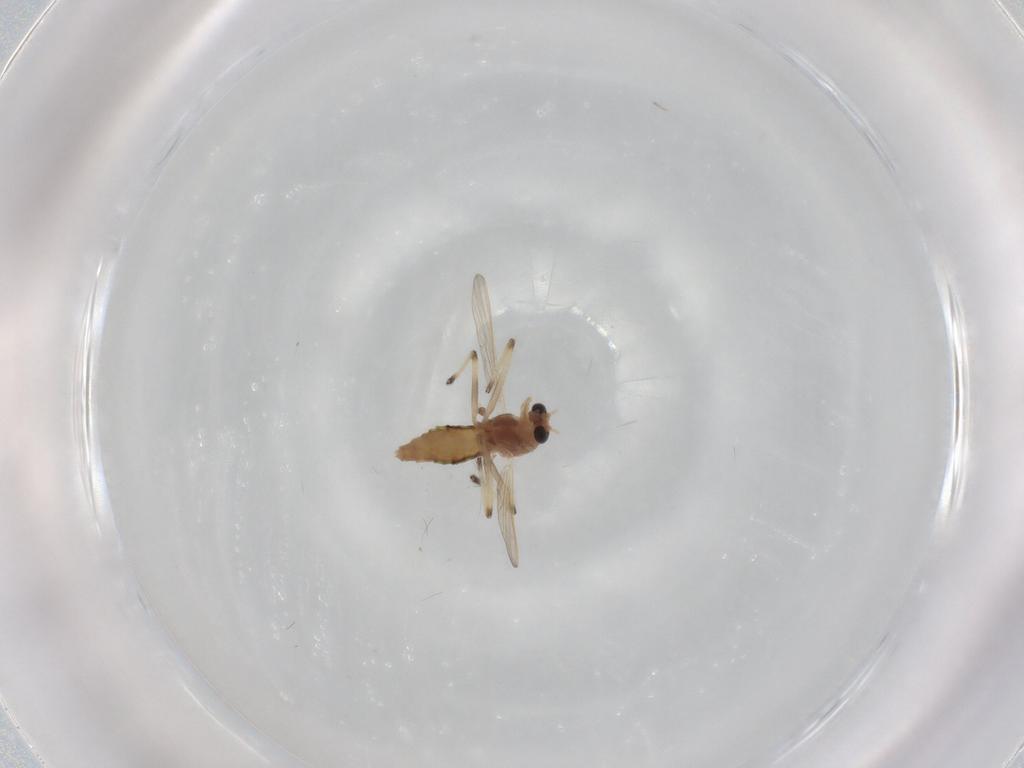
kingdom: Animalia
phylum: Arthropoda
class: Insecta
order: Diptera
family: Chironomidae
